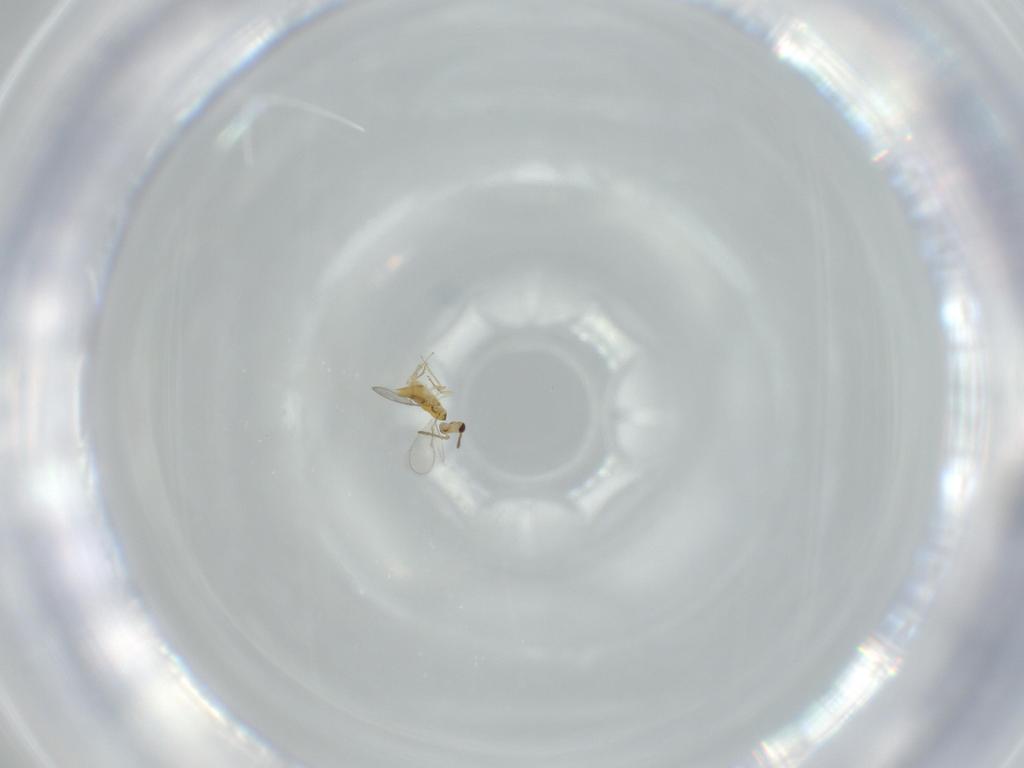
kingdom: Animalia
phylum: Arthropoda
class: Insecta
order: Hymenoptera
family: Aphelinidae
